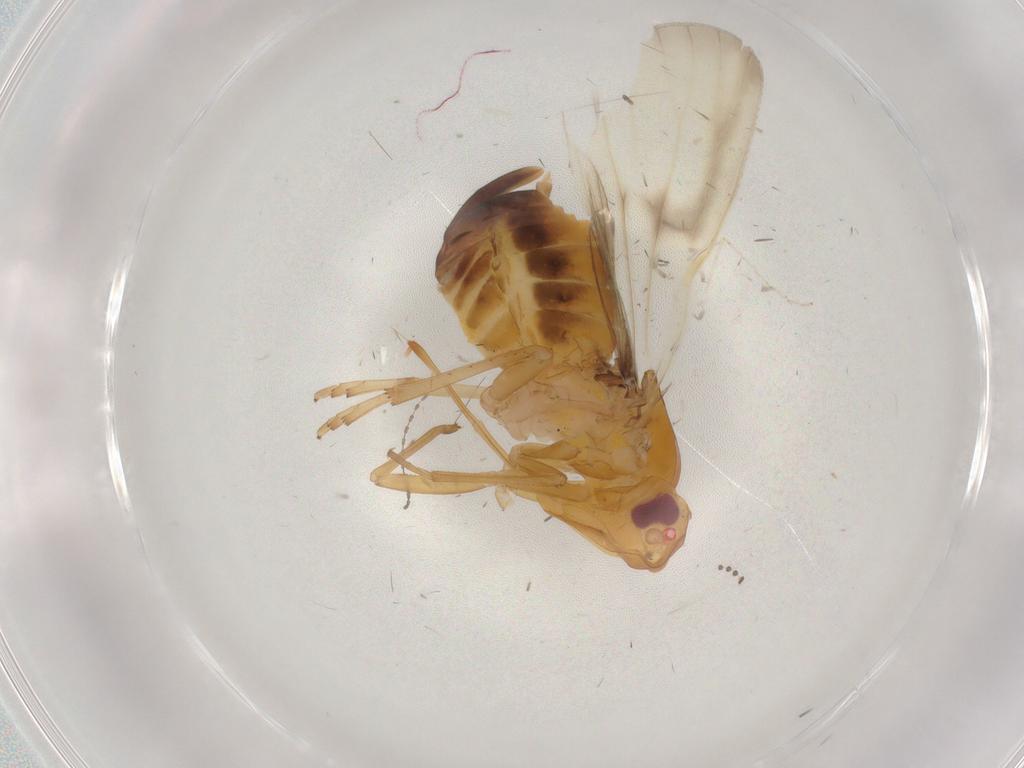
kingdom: Animalia
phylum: Arthropoda
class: Insecta
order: Hemiptera
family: Cixiidae
